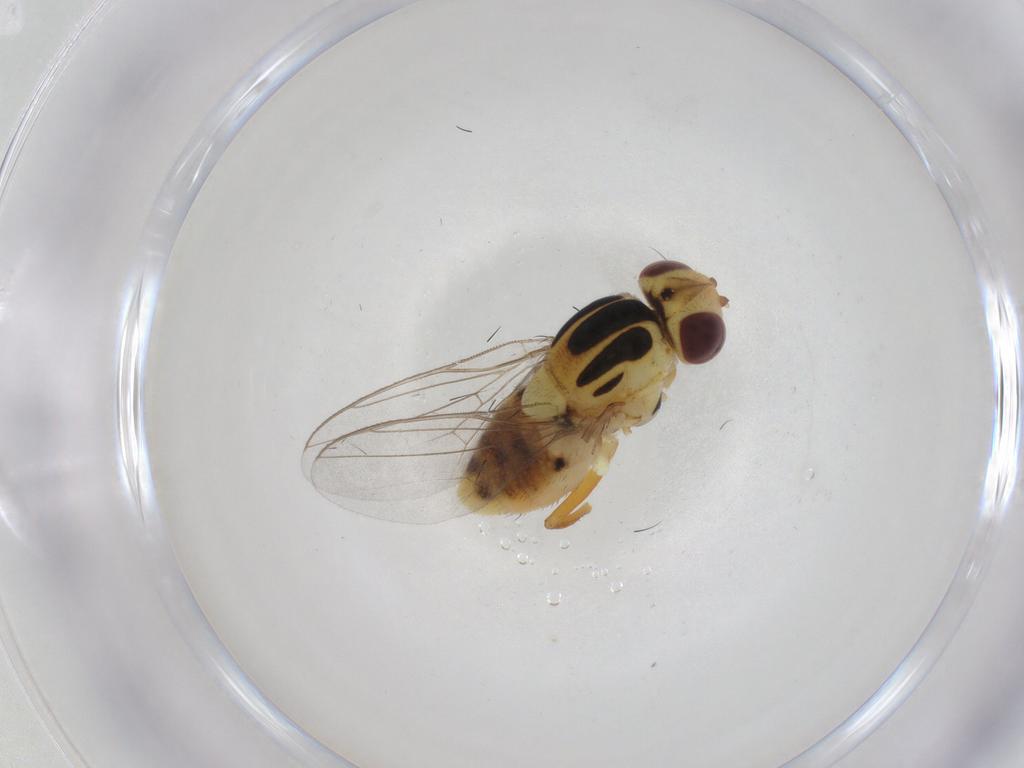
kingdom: Animalia
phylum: Arthropoda
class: Insecta
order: Diptera
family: Chloropidae
